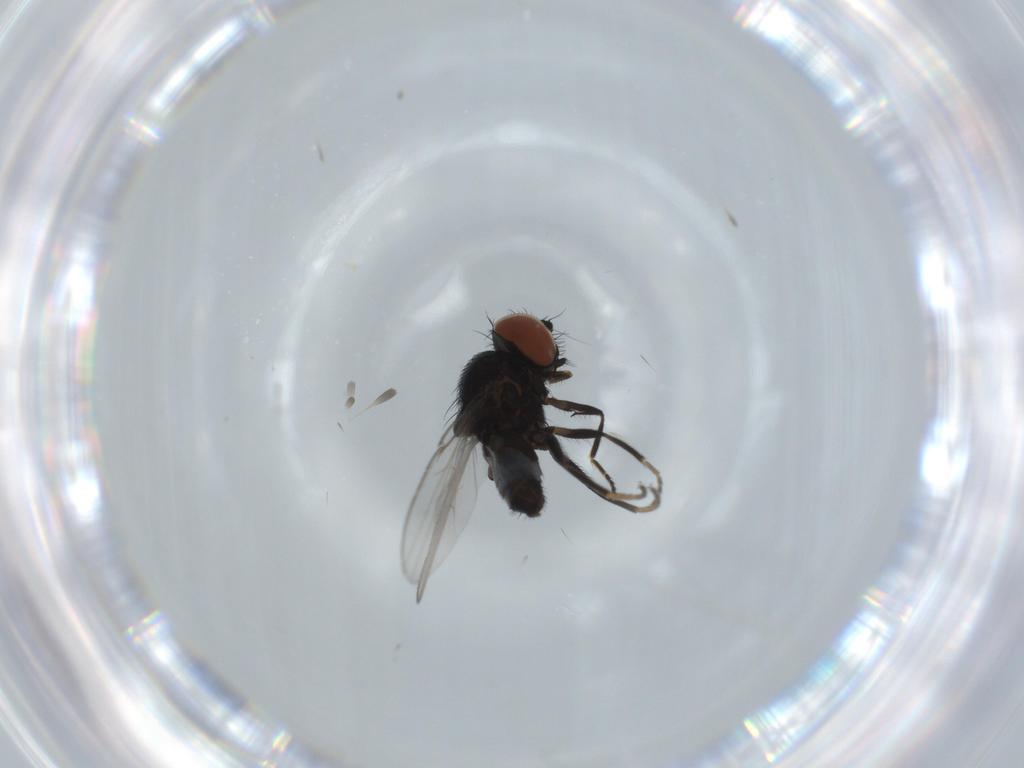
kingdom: Animalia
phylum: Arthropoda
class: Insecta
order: Diptera
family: Milichiidae
